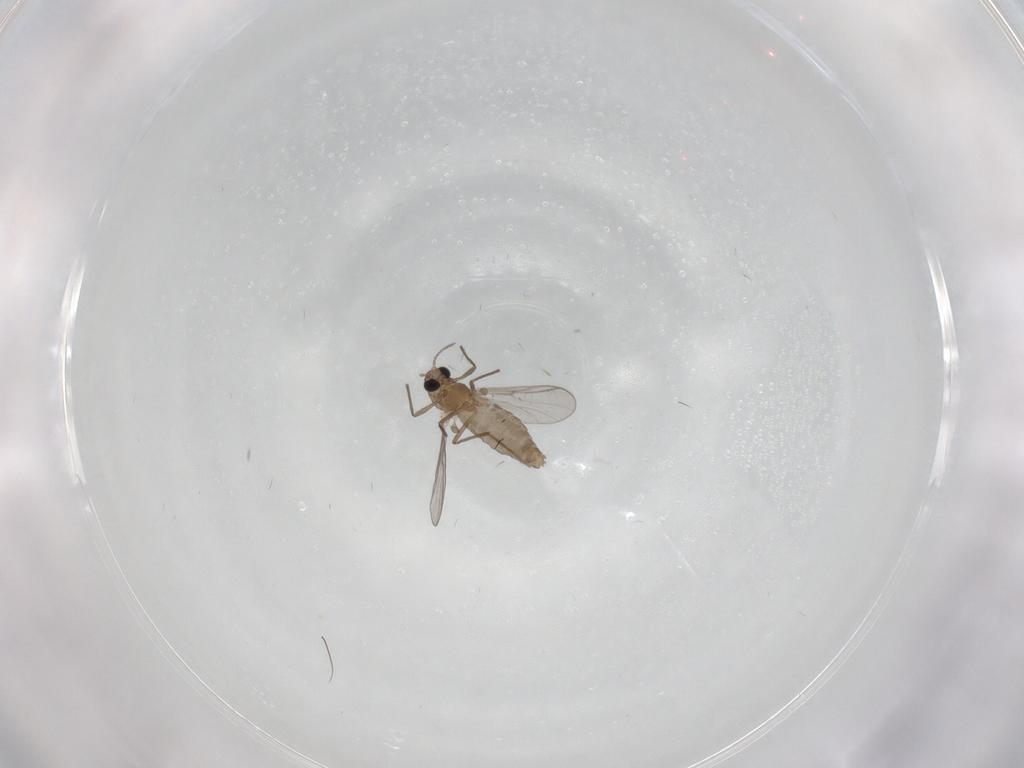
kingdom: Animalia
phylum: Arthropoda
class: Insecta
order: Diptera
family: Chironomidae
